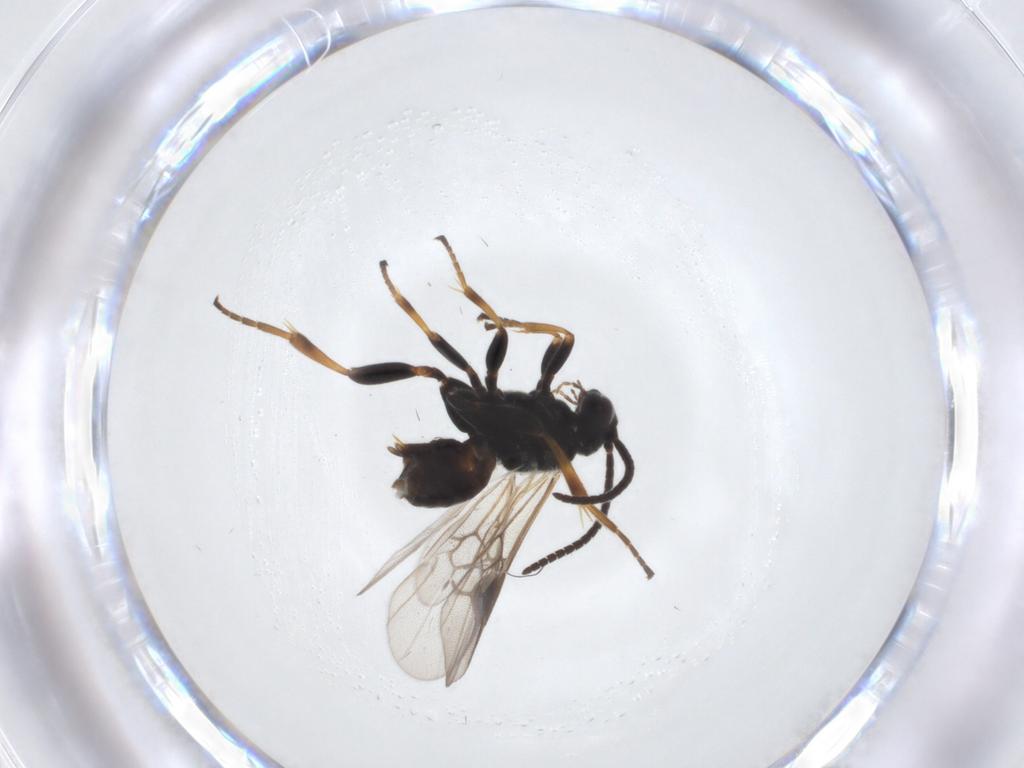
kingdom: Animalia
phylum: Arthropoda
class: Insecta
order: Hymenoptera
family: Braconidae
